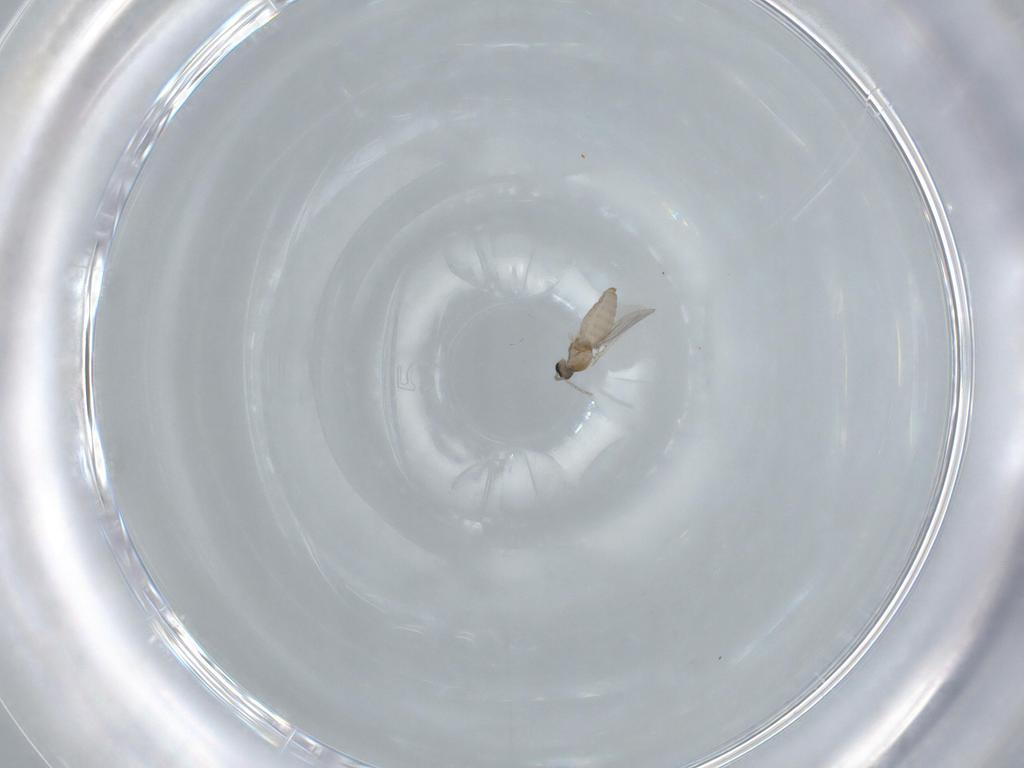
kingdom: Animalia
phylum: Arthropoda
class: Insecta
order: Diptera
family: Cecidomyiidae
